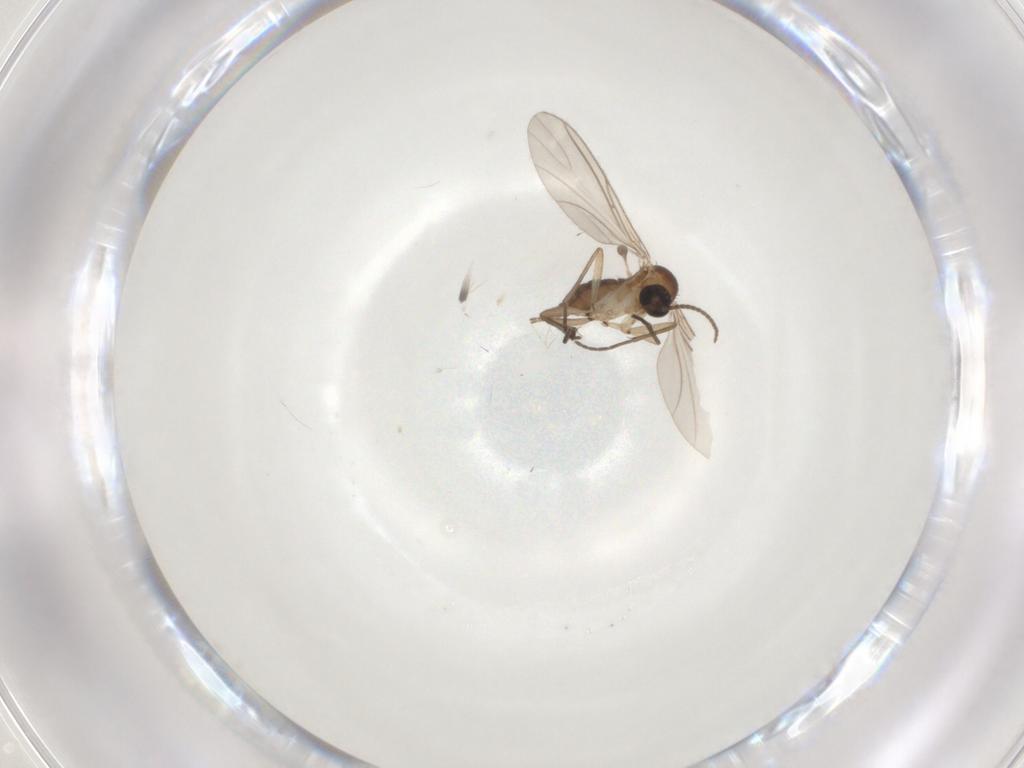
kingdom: Animalia
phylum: Arthropoda
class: Insecta
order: Diptera
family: Sciaridae
